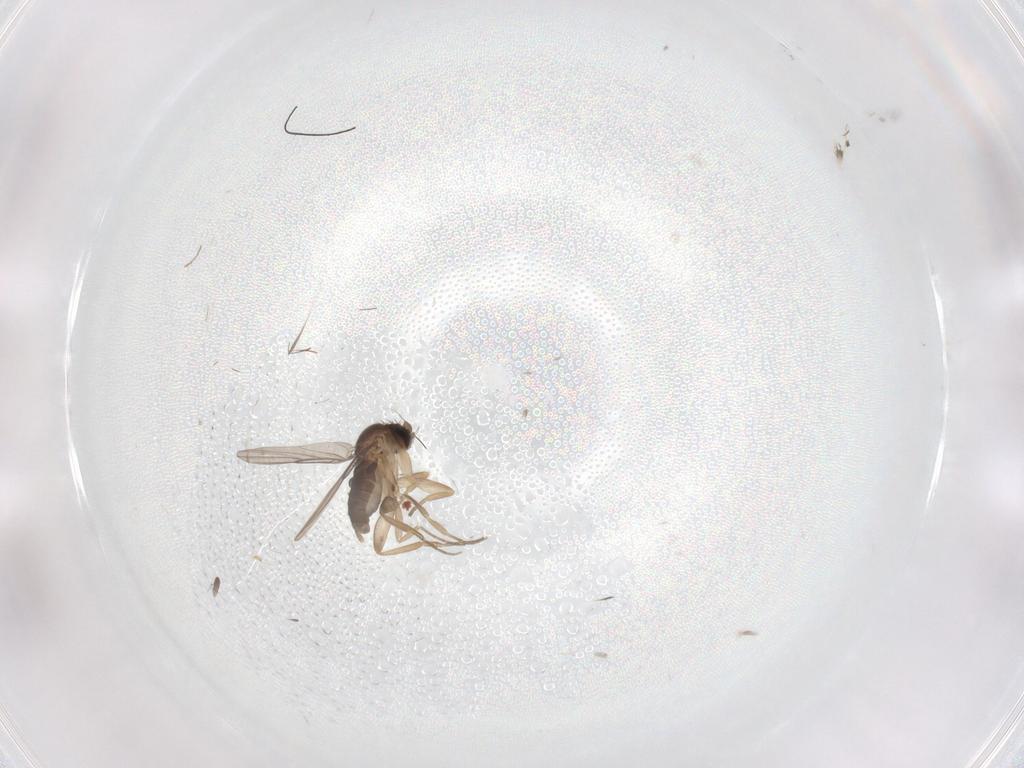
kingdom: Animalia
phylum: Arthropoda
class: Insecta
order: Diptera
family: Phoridae
